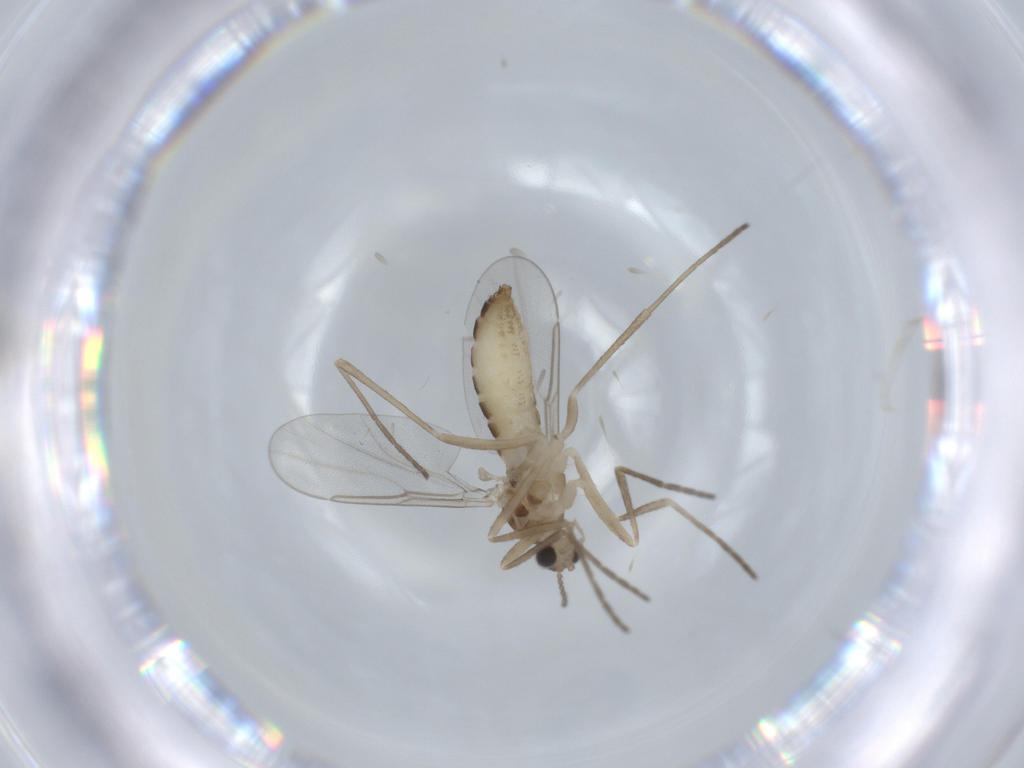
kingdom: Animalia
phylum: Arthropoda
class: Insecta
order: Diptera
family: Cecidomyiidae
